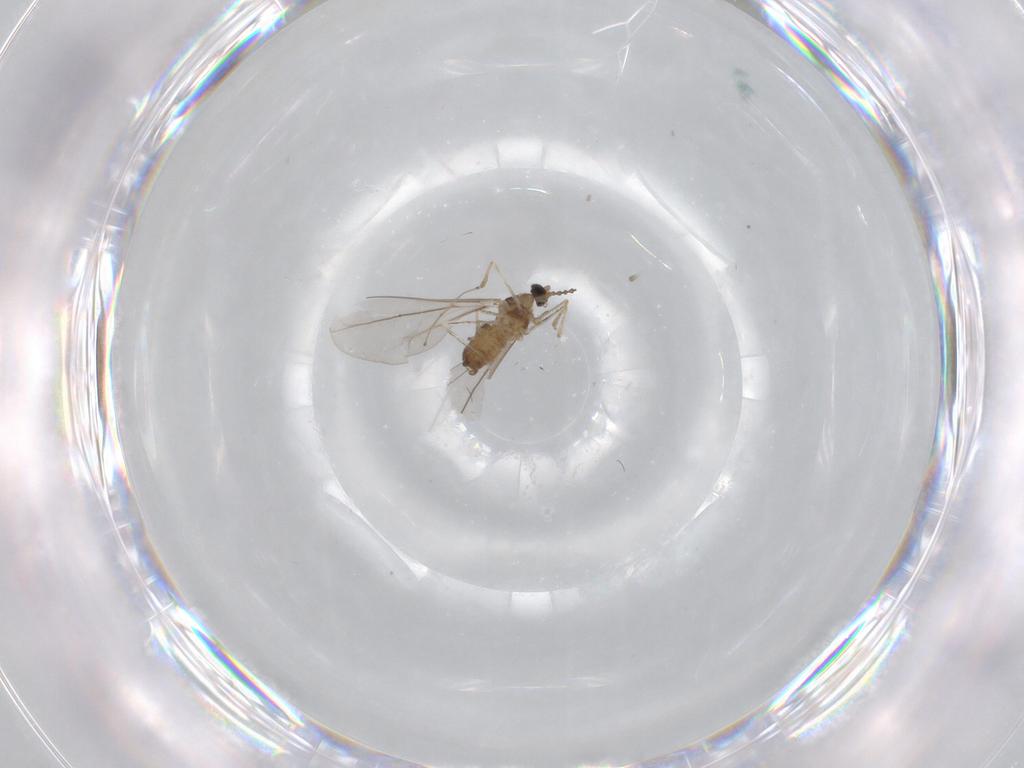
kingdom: Animalia
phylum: Arthropoda
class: Insecta
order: Diptera
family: Cecidomyiidae
